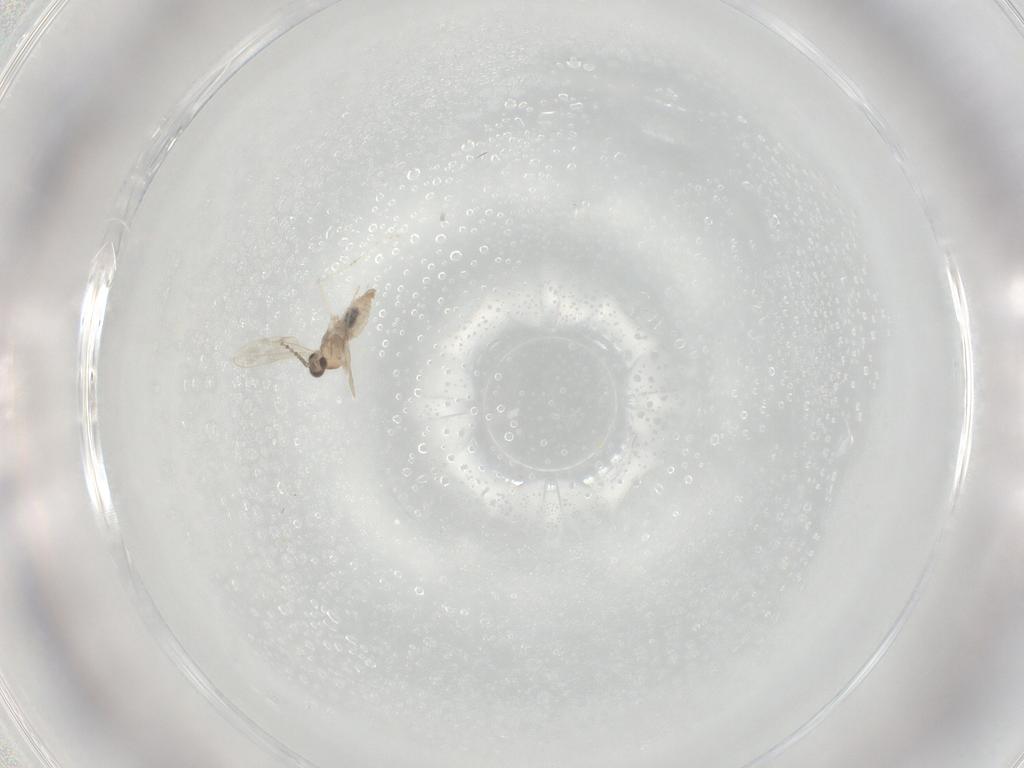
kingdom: Animalia
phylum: Arthropoda
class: Insecta
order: Diptera
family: Cecidomyiidae
